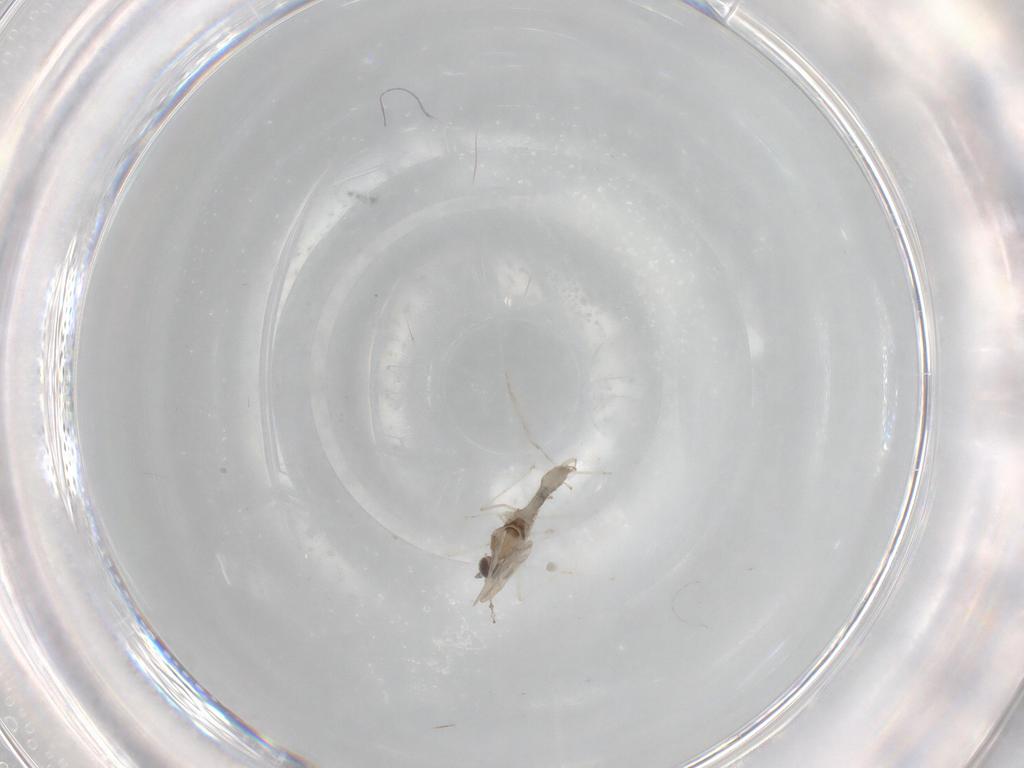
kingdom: Animalia
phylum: Arthropoda
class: Insecta
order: Diptera
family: Cecidomyiidae
